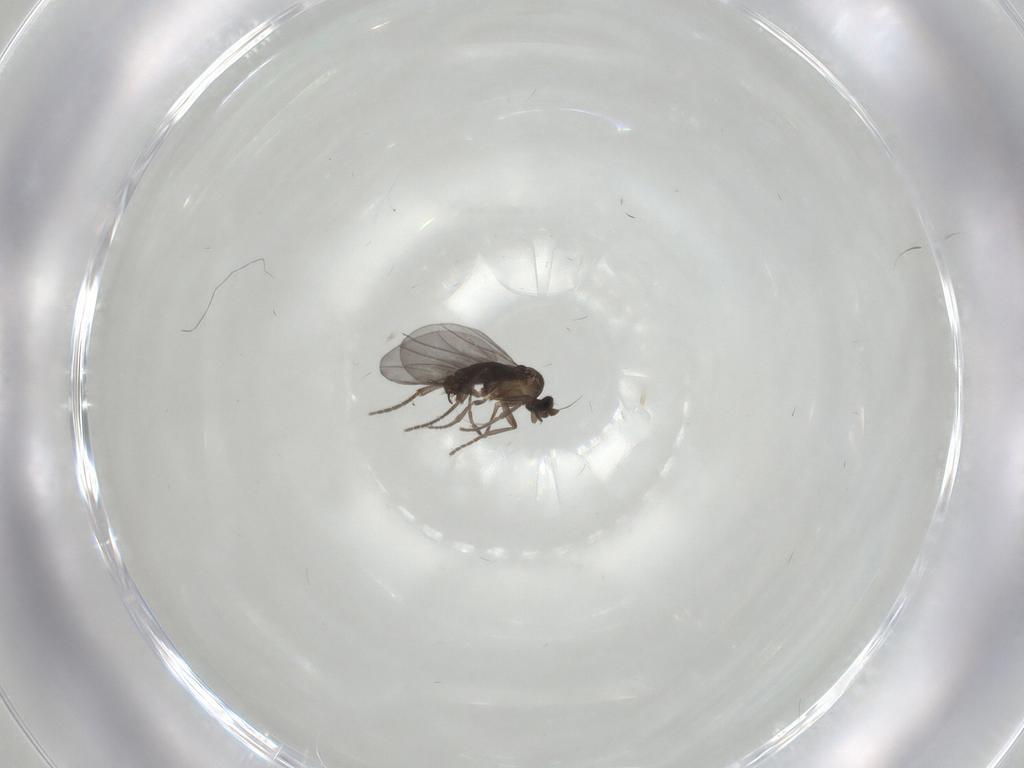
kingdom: Animalia
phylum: Arthropoda
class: Insecta
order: Diptera
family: Phoridae
